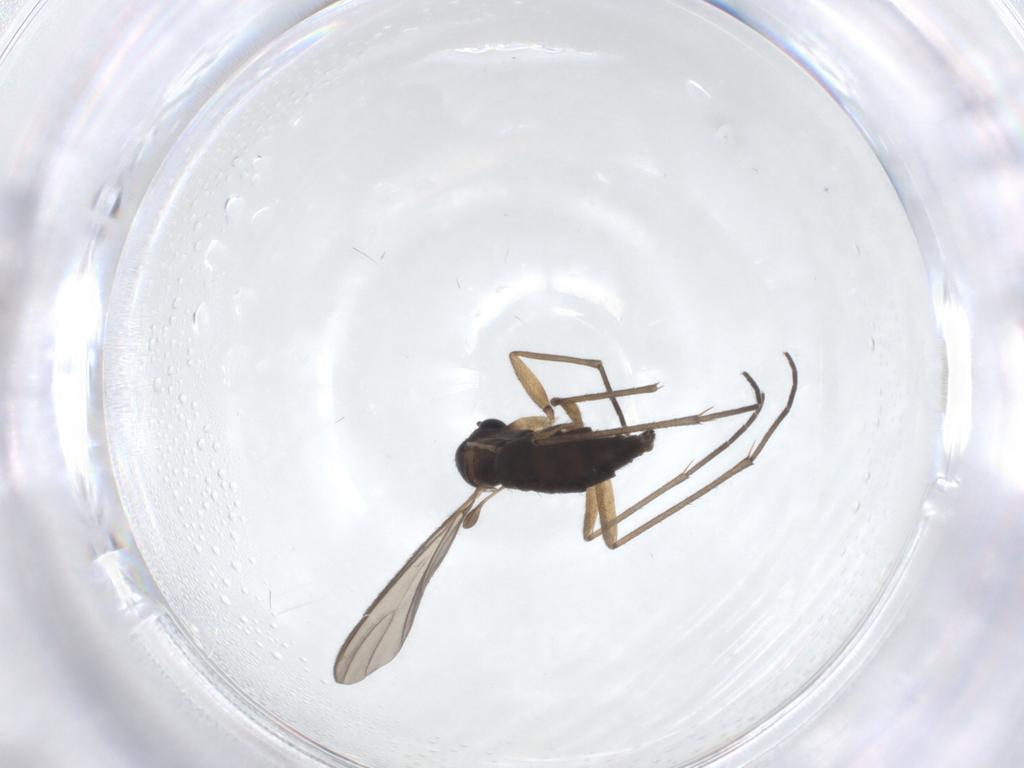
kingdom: Animalia
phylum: Arthropoda
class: Insecta
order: Diptera
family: Sciaridae
